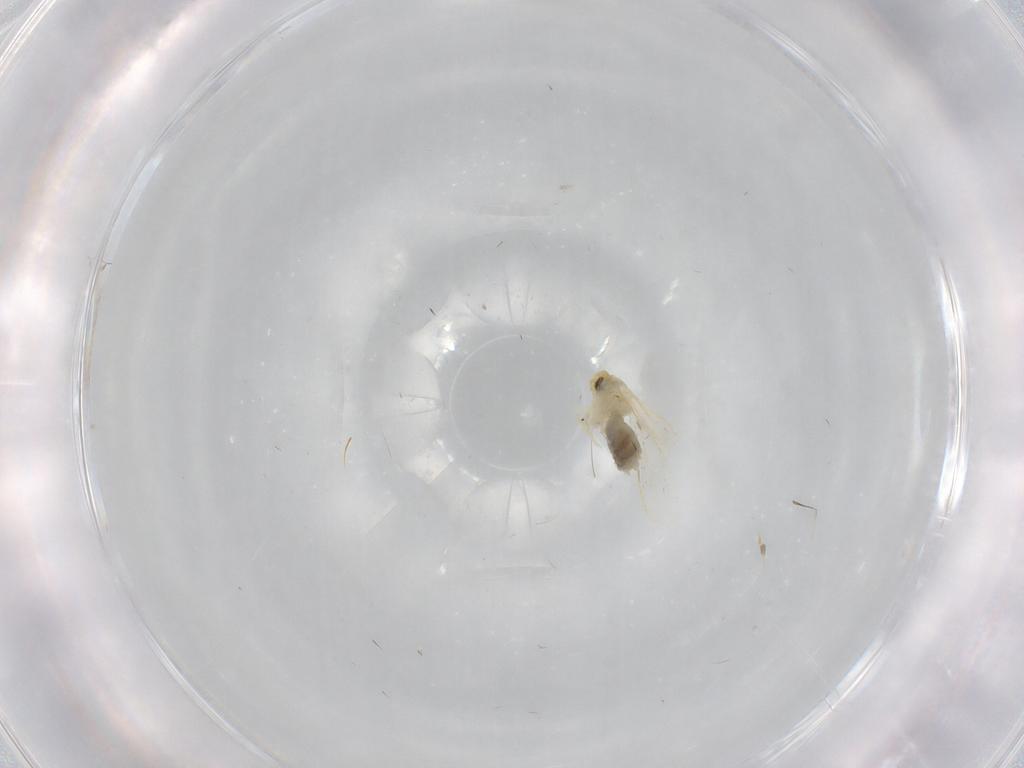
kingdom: Animalia
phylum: Arthropoda
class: Insecta
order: Hemiptera
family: Aleyrodidae
